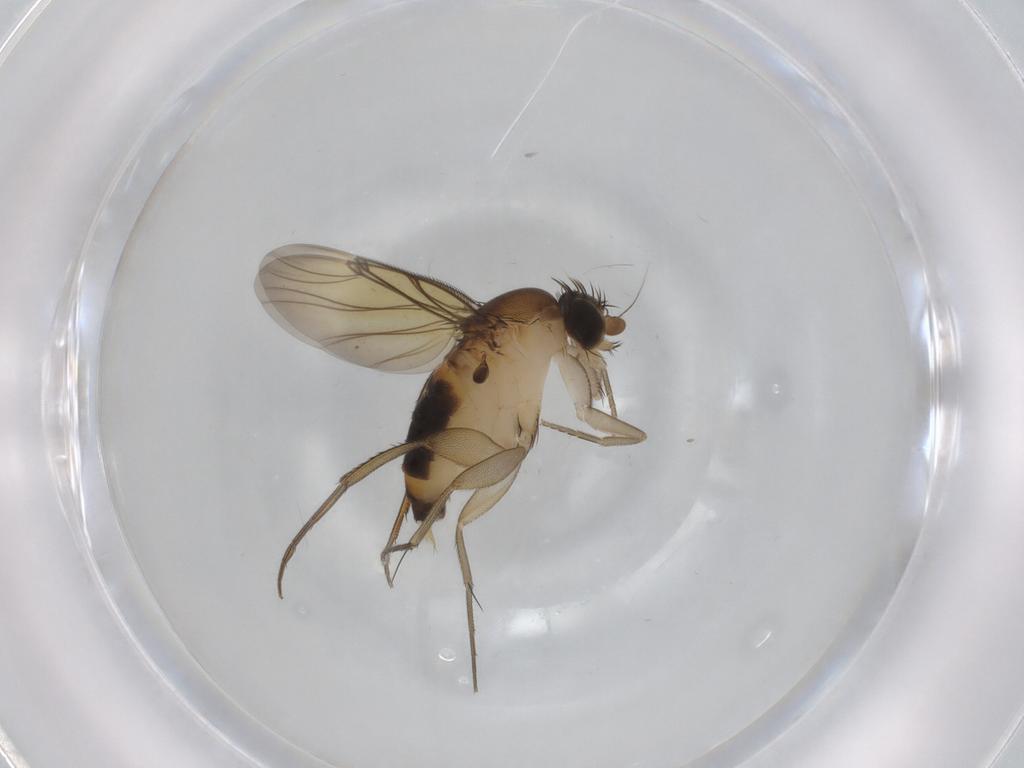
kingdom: Animalia
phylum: Arthropoda
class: Insecta
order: Diptera
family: Phoridae
